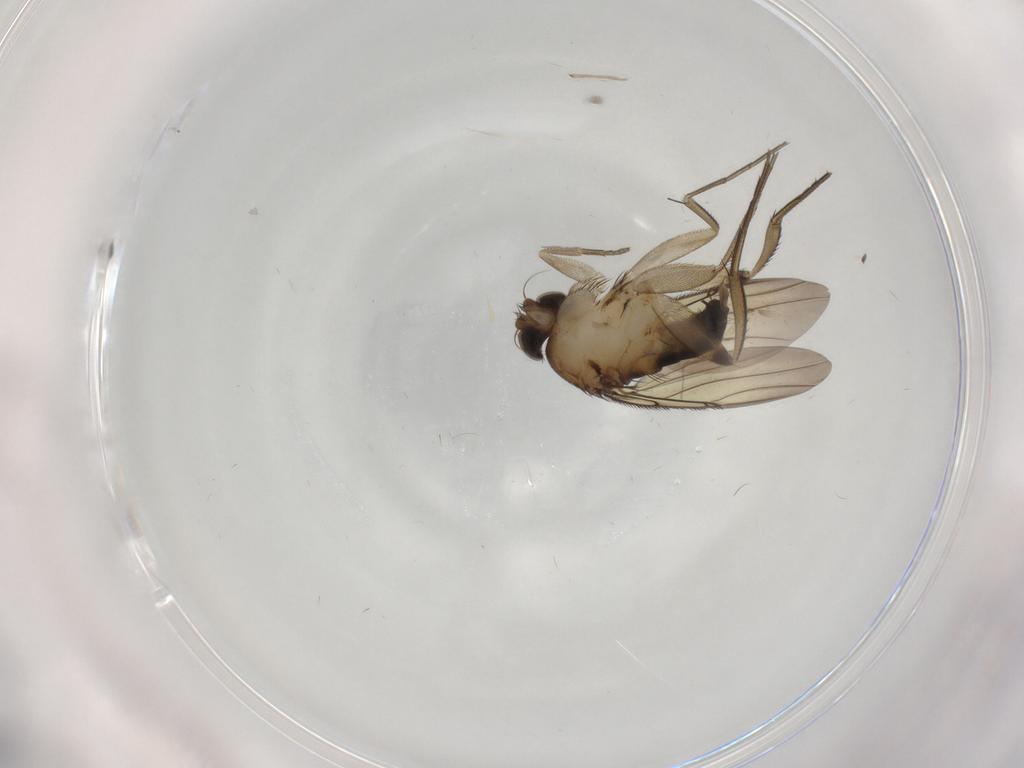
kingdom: Animalia
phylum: Arthropoda
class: Insecta
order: Diptera
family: Phoridae
